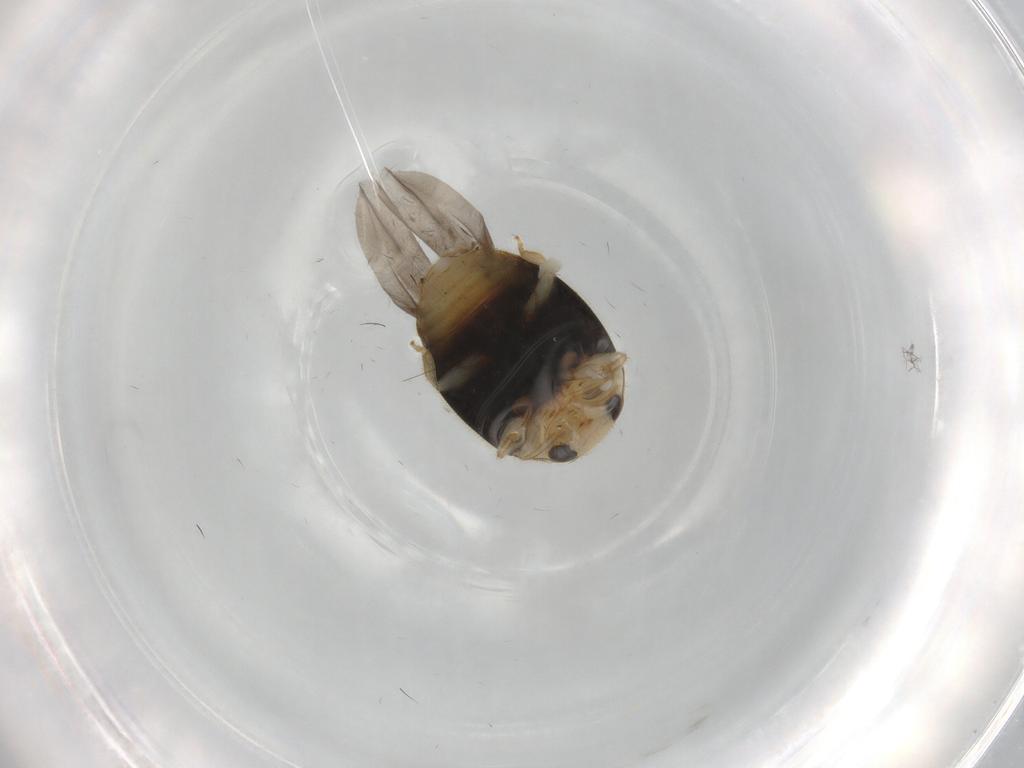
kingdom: Animalia
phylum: Arthropoda
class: Insecta
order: Coleoptera
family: Coccinellidae
